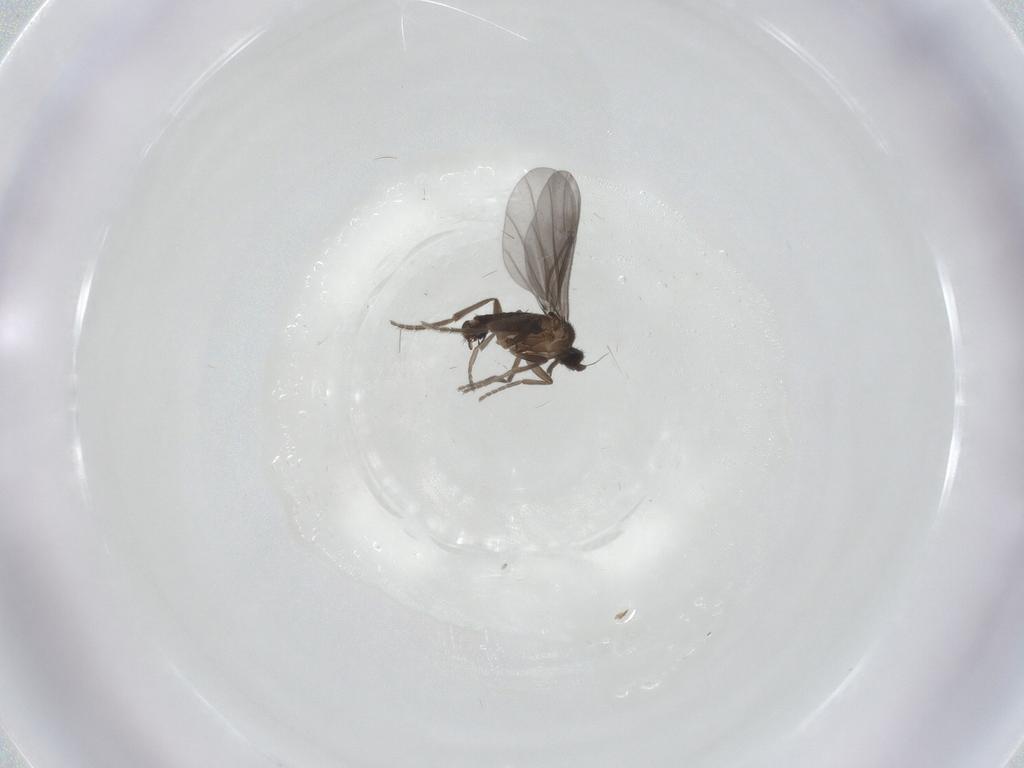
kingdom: Animalia
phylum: Arthropoda
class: Insecta
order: Diptera
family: Phoridae
